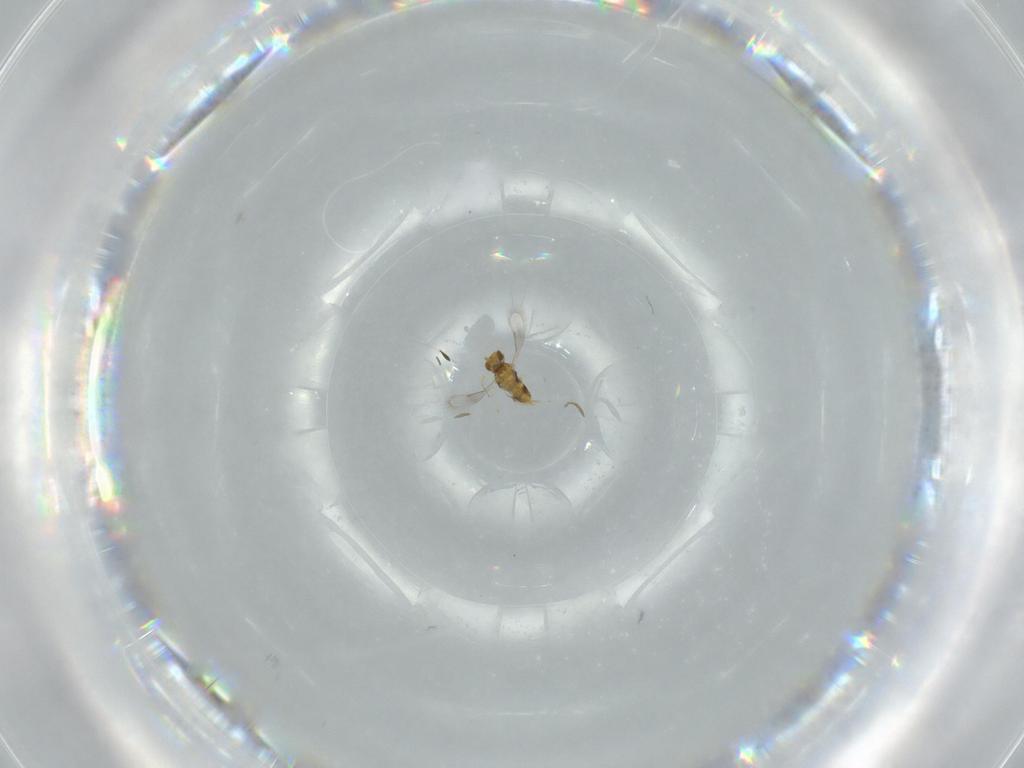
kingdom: Animalia
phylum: Arthropoda
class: Insecta
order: Hymenoptera
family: Aphelinidae
